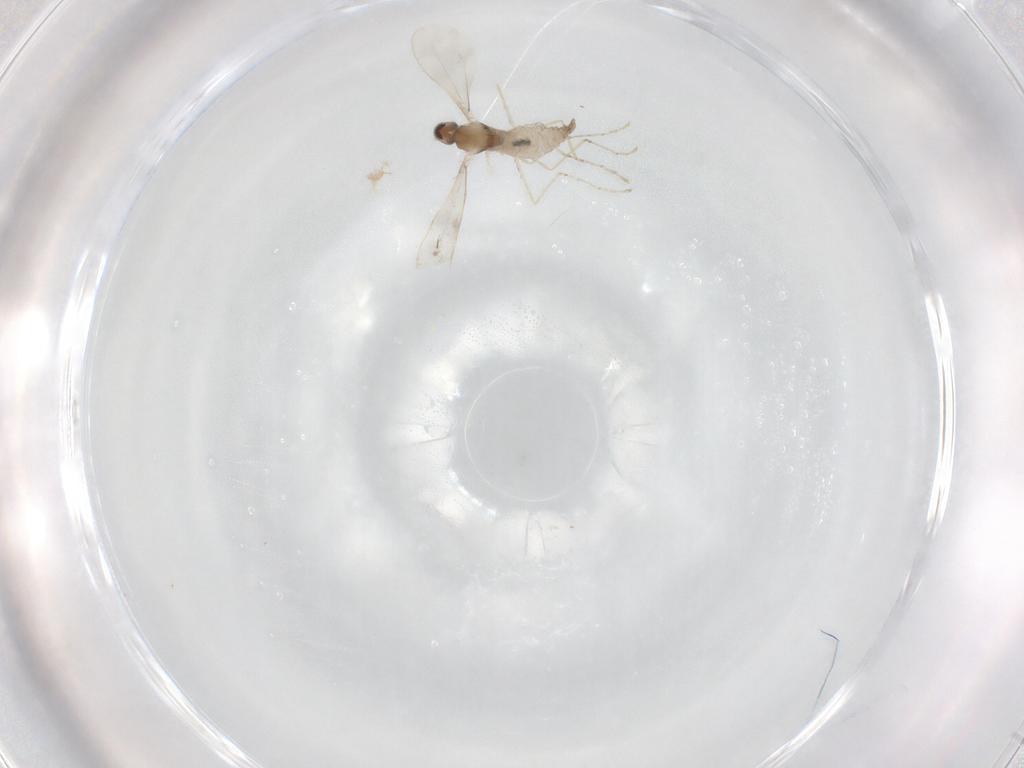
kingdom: Animalia
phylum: Arthropoda
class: Insecta
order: Diptera
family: Cecidomyiidae
